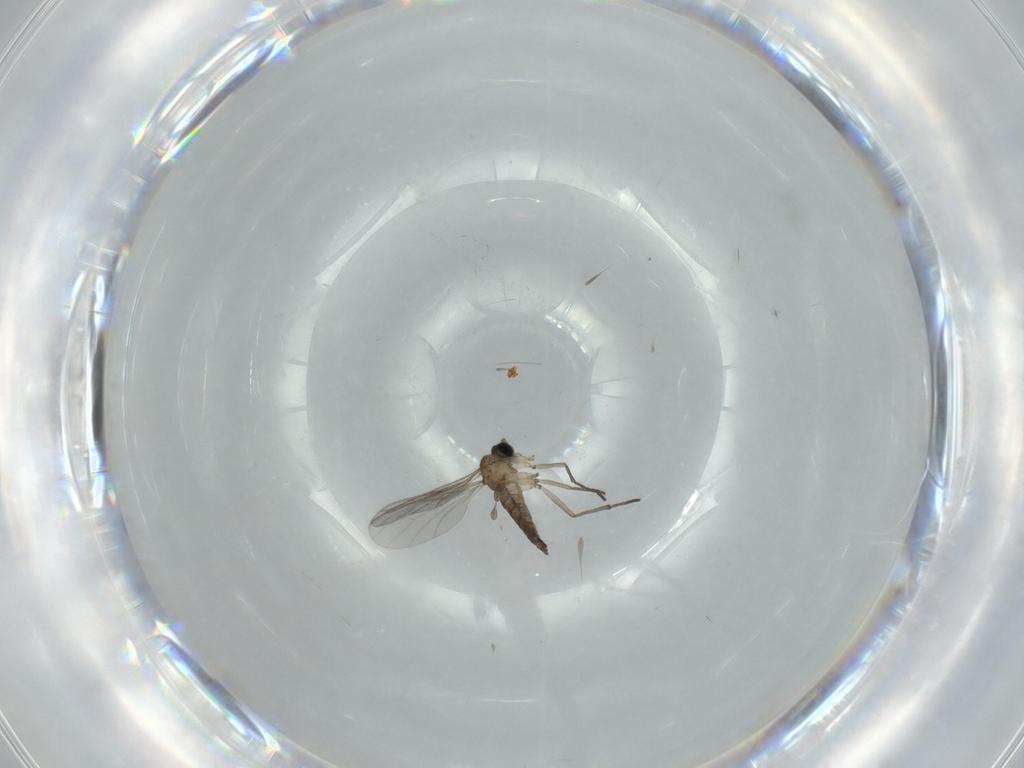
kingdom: Animalia
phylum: Arthropoda
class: Insecta
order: Diptera
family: Sciaridae
